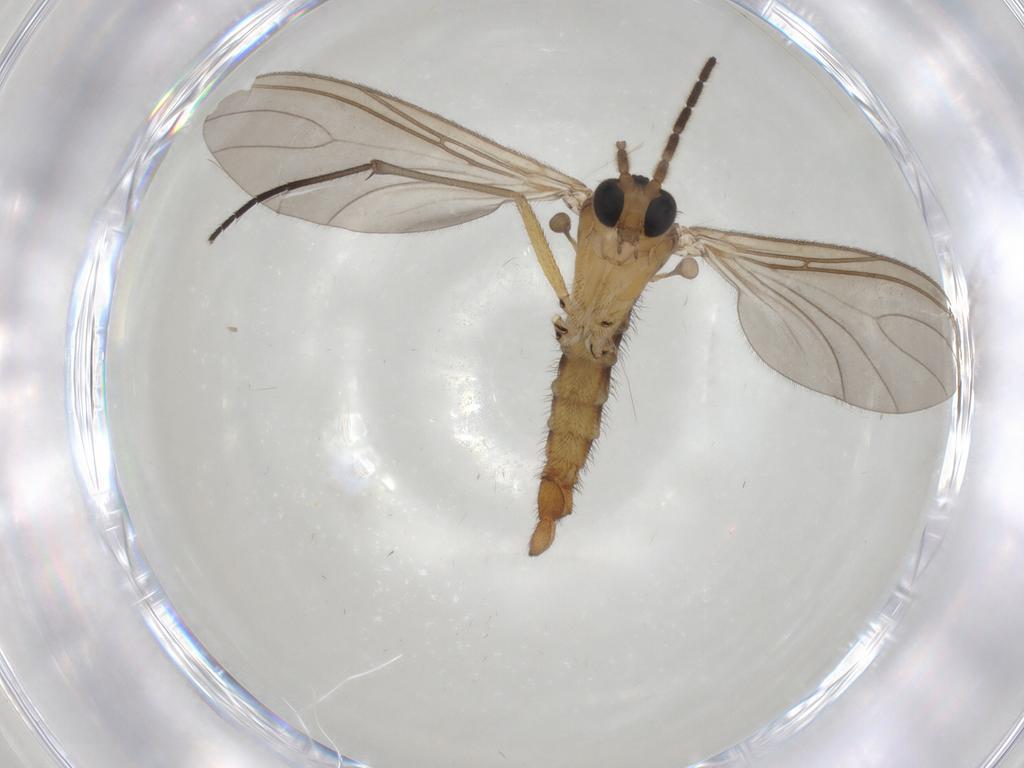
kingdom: Animalia
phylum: Arthropoda
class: Insecta
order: Diptera
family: Sciaridae
